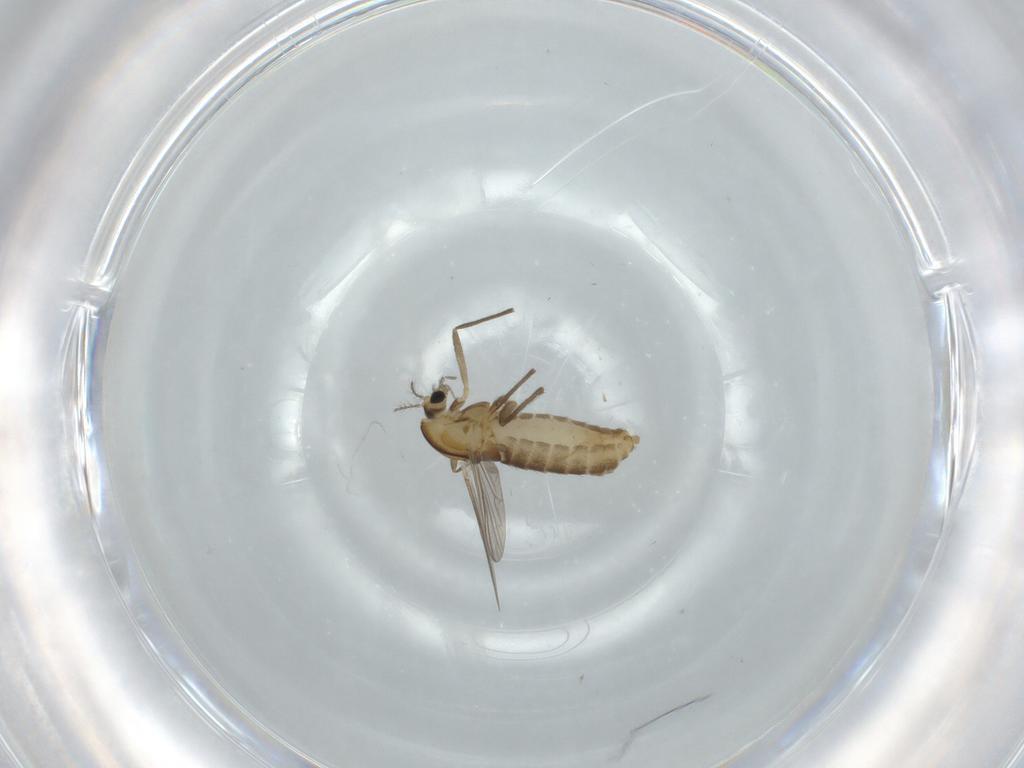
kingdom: Animalia
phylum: Arthropoda
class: Insecta
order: Diptera
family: Chironomidae
